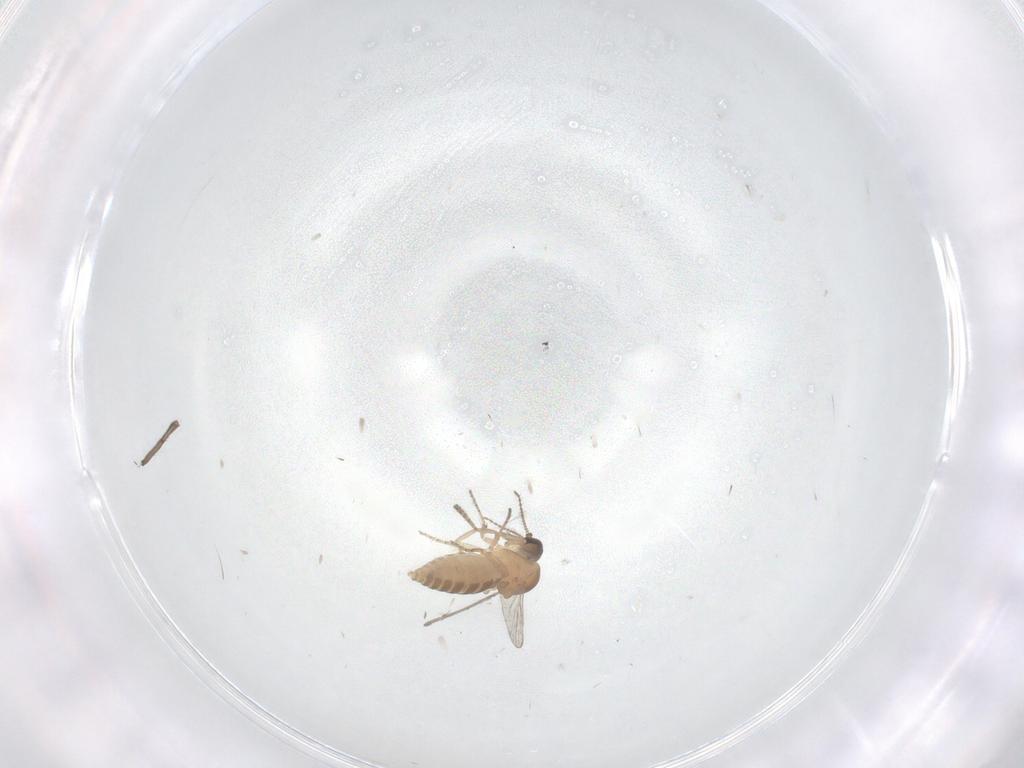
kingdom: Animalia
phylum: Arthropoda
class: Insecta
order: Diptera
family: Ceratopogonidae
